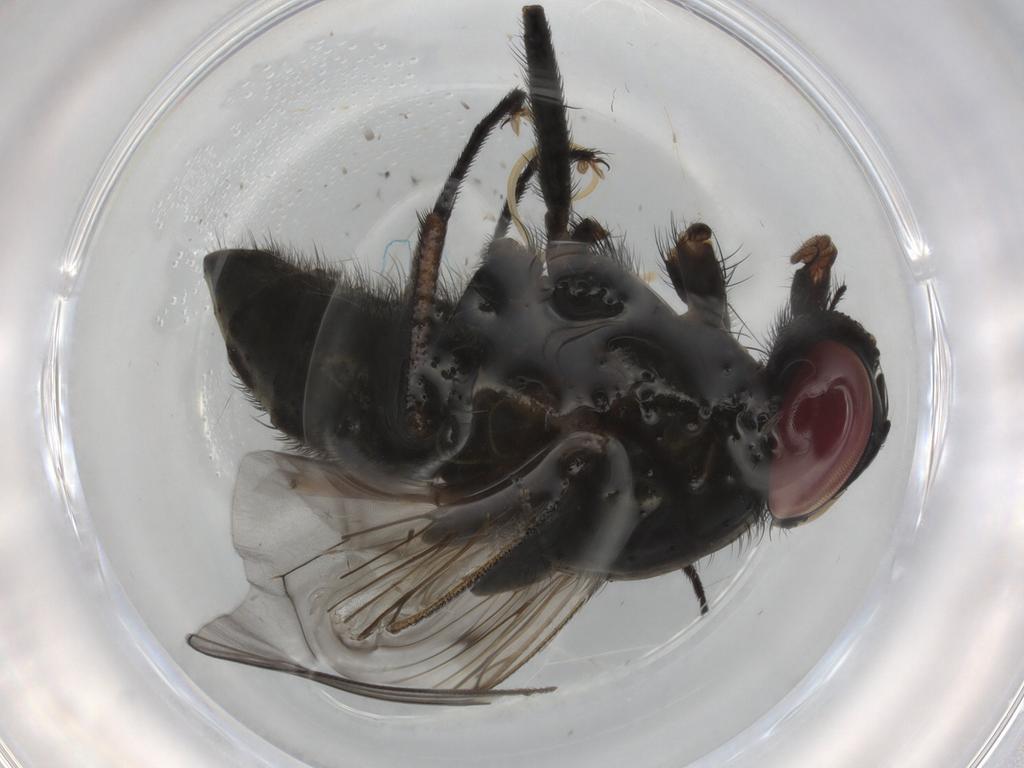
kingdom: Animalia
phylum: Arthropoda
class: Insecta
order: Diptera
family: Muscidae
